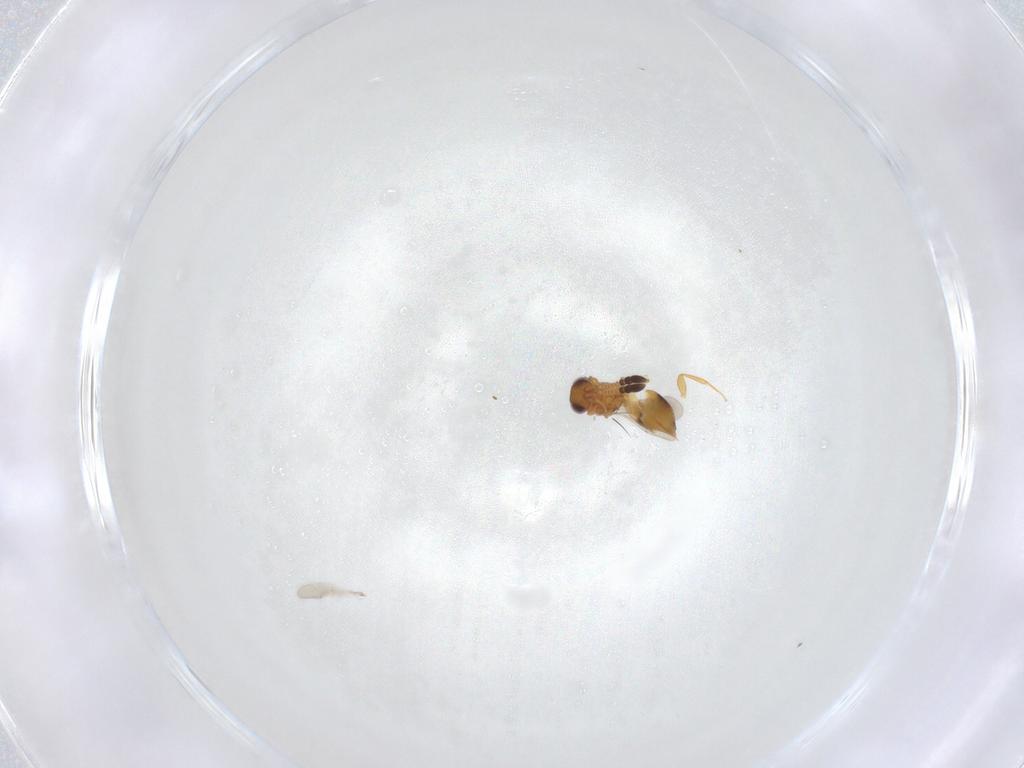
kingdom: Animalia
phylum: Arthropoda
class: Insecta
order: Hymenoptera
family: Ceraphronidae
